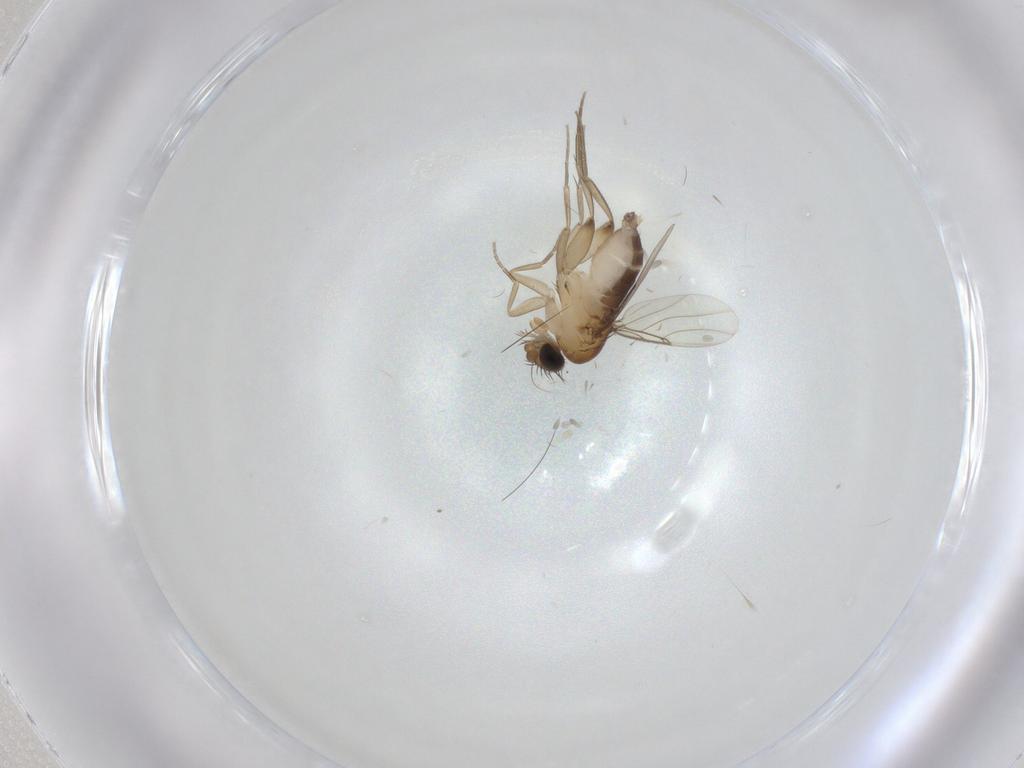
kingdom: Animalia
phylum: Arthropoda
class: Insecta
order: Diptera
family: Phoridae
